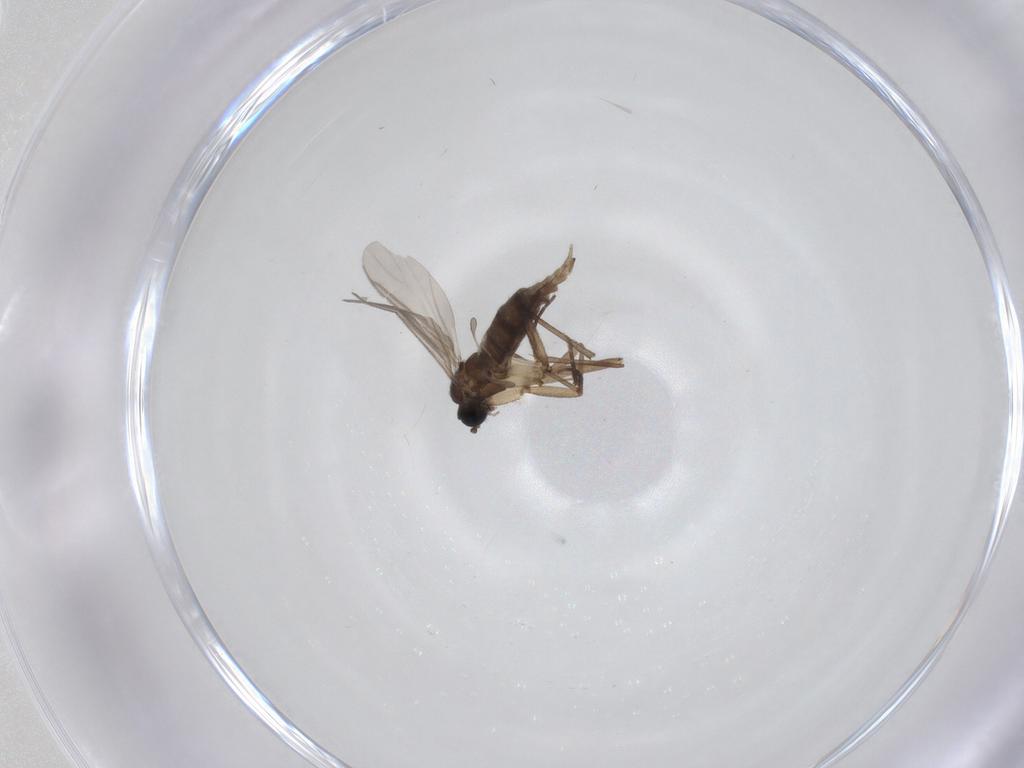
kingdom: Animalia
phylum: Arthropoda
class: Insecta
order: Diptera
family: Sciaridae
